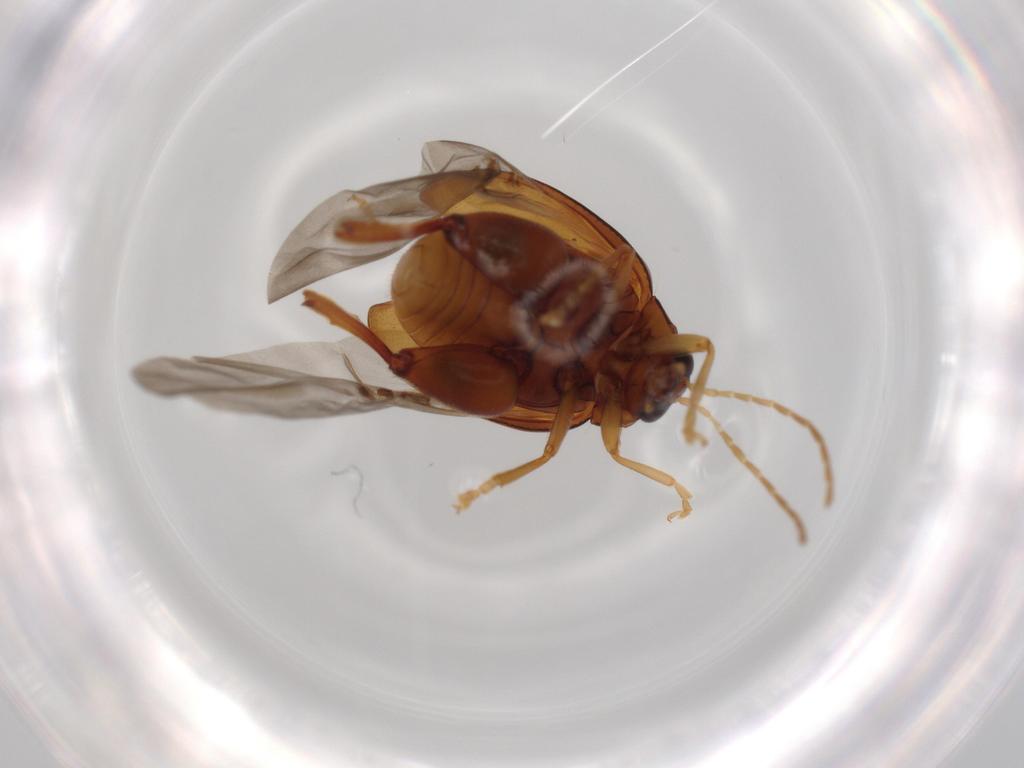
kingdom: Animalia
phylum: Arthropoda
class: Insecta
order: Coleoptera
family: Chrysomelidae
